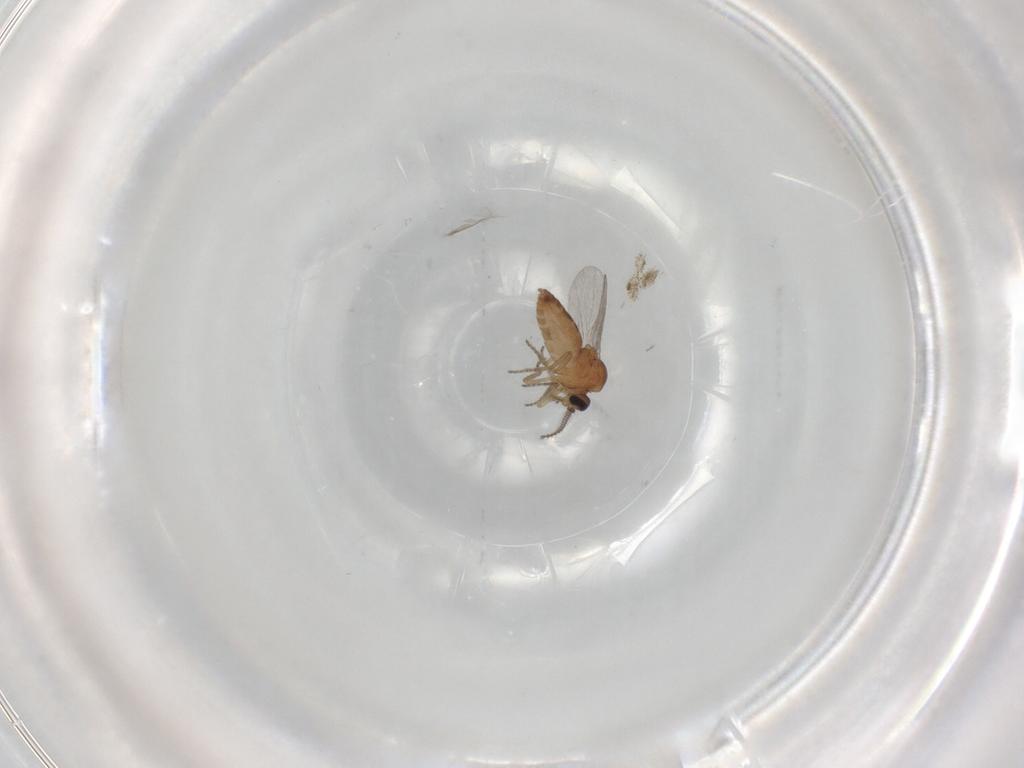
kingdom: Animalia
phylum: Arthropoda
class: Insecta
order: Diptera
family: Ceratopogonidae
